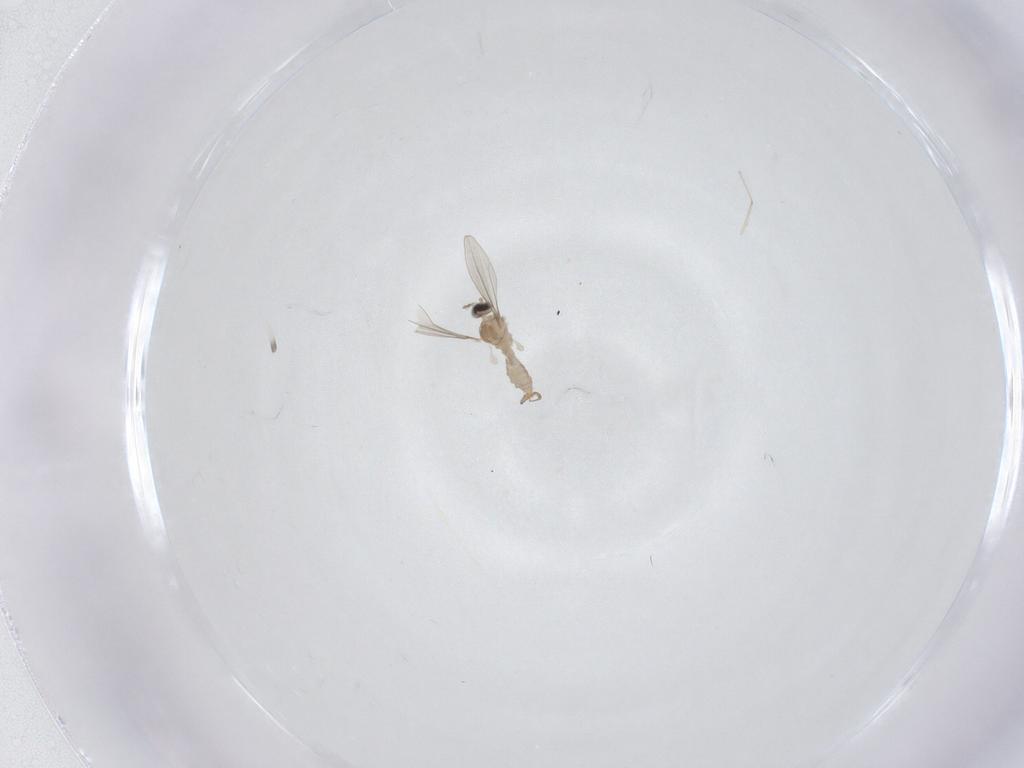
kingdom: Animalia
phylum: Arthropoda
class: Insecta
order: Diptera
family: Cecidomyiidae
